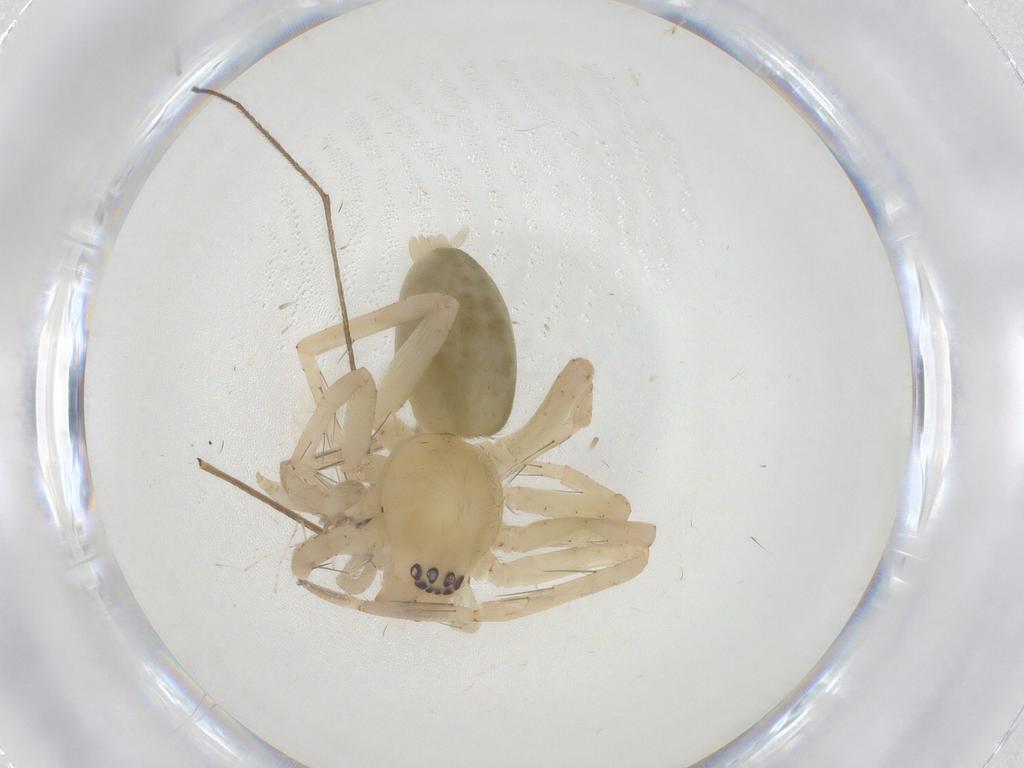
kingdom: Animalia
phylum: Arthropoda
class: Arachnida
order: Araneae
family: Anyphaenidae
